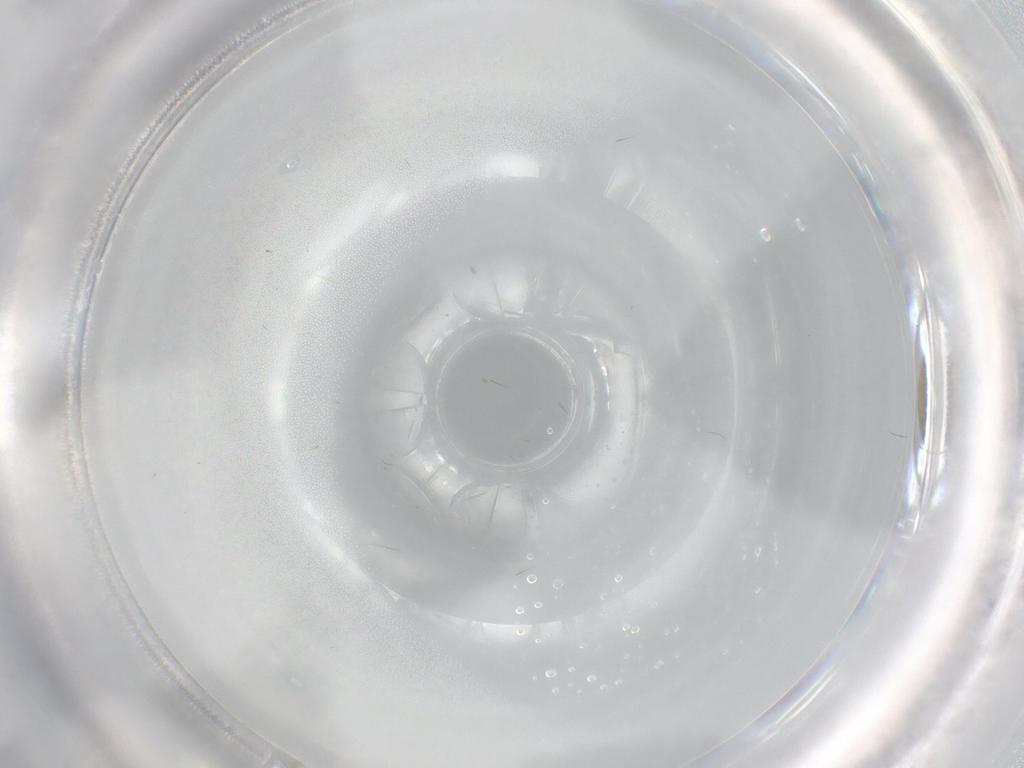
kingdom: Animalia
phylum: Arthropoda
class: Insecta
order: Diptera
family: Cecidomyiidae
